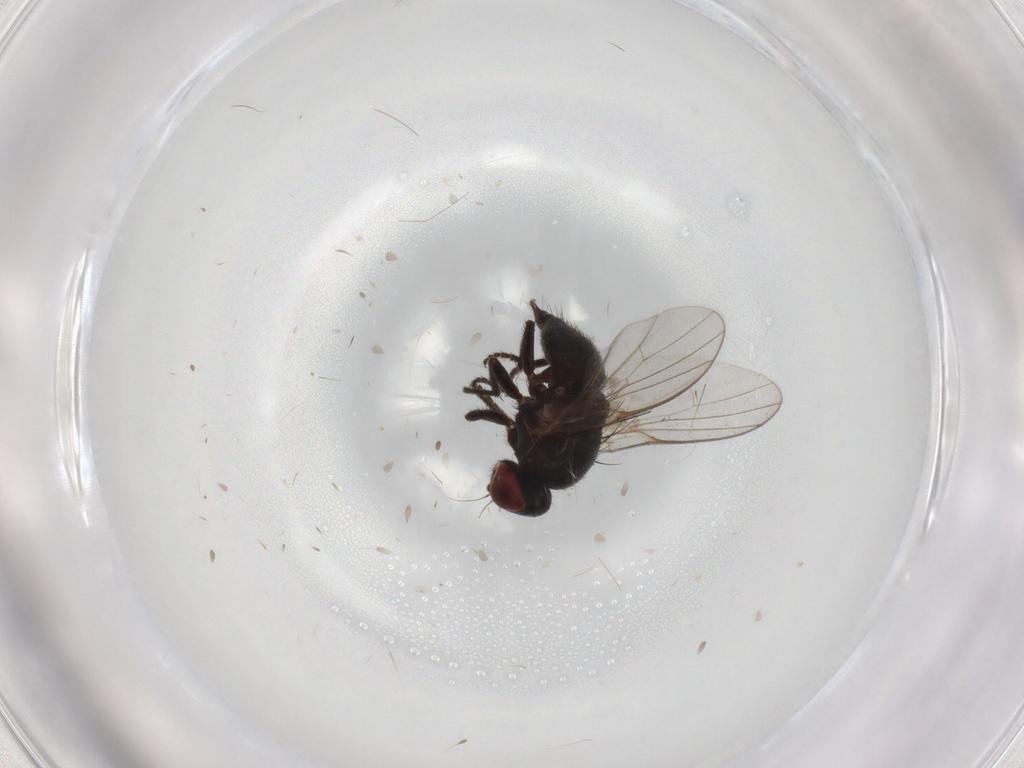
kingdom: Animalia
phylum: Arthropoda
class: Insecta
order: Diptera
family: Agromyzidae
